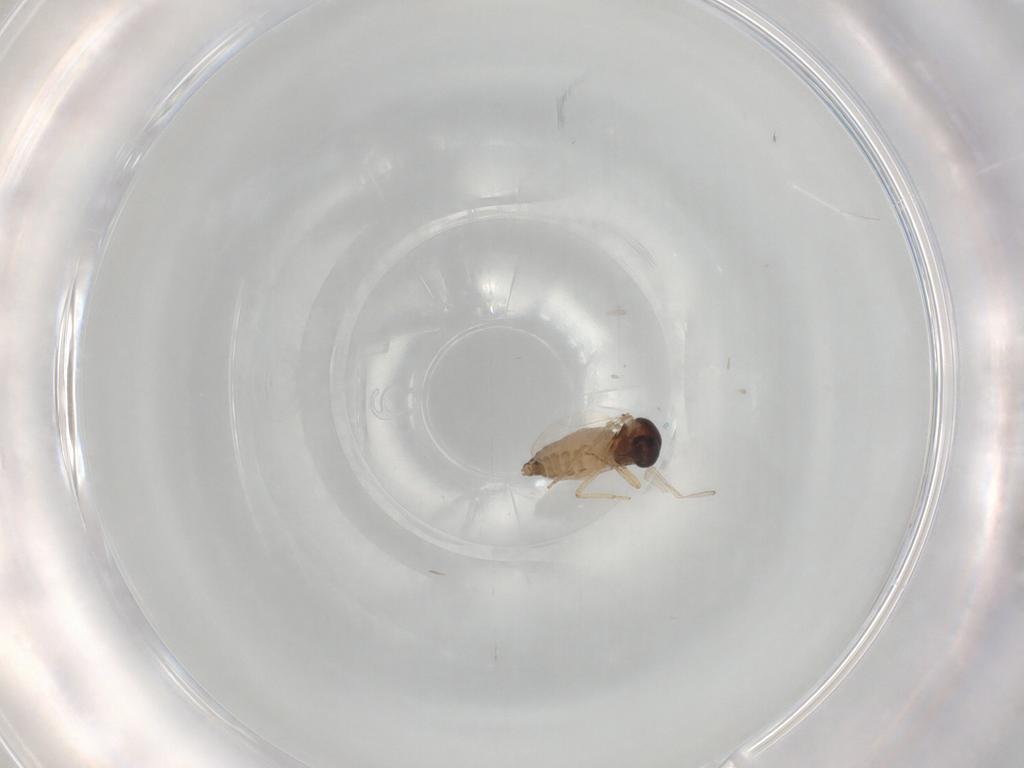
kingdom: Animalia
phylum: Arthropoda
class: Insecta
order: Diptera
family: Ceratopogonidae
